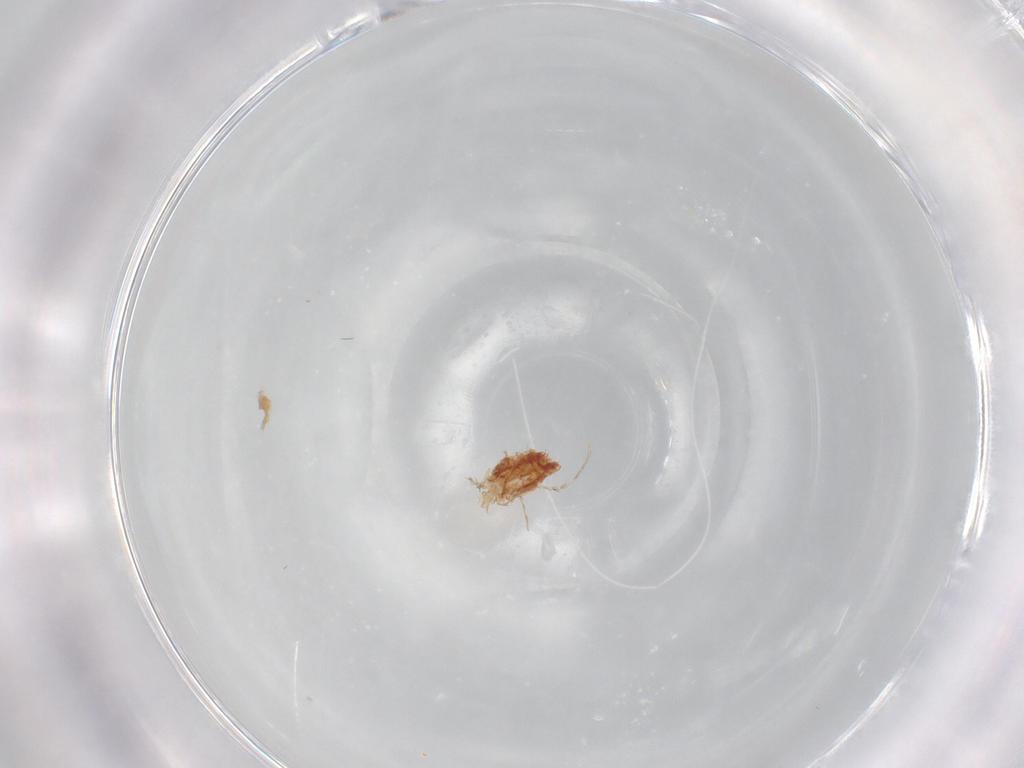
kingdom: Animalia
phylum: Arthropoda
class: Arachnida
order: Trombidiformes
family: Erythraeidae
